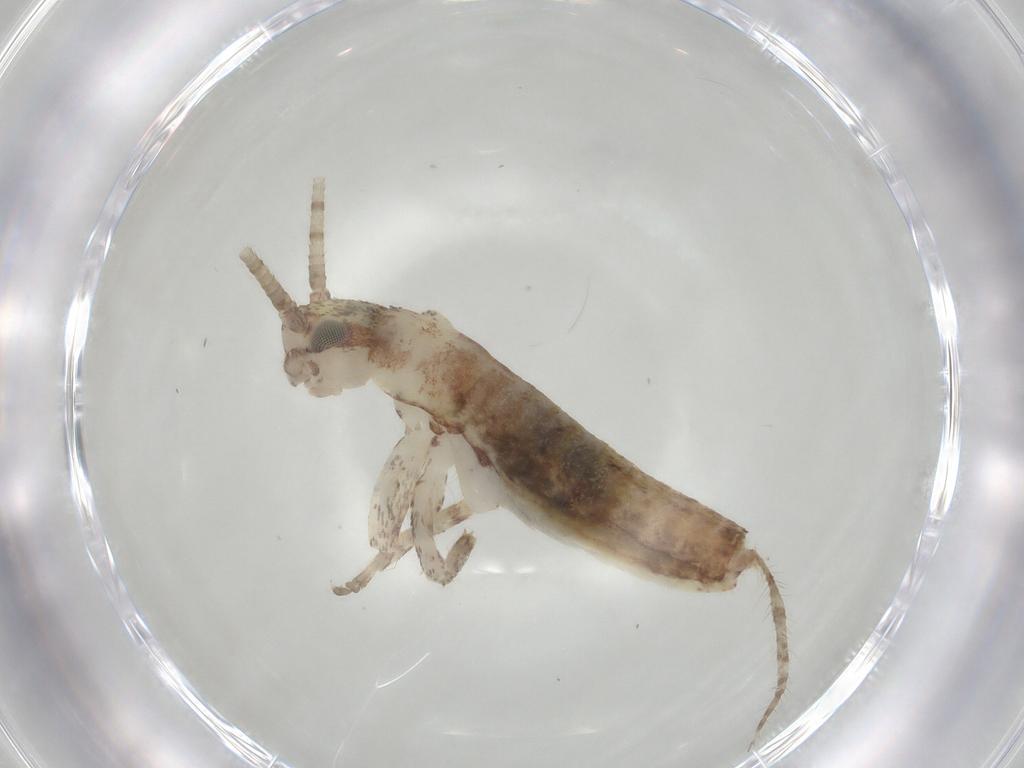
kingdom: Animalia
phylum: Arthropoda
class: Insecta
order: Orthoptera
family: Mogoplistidae
